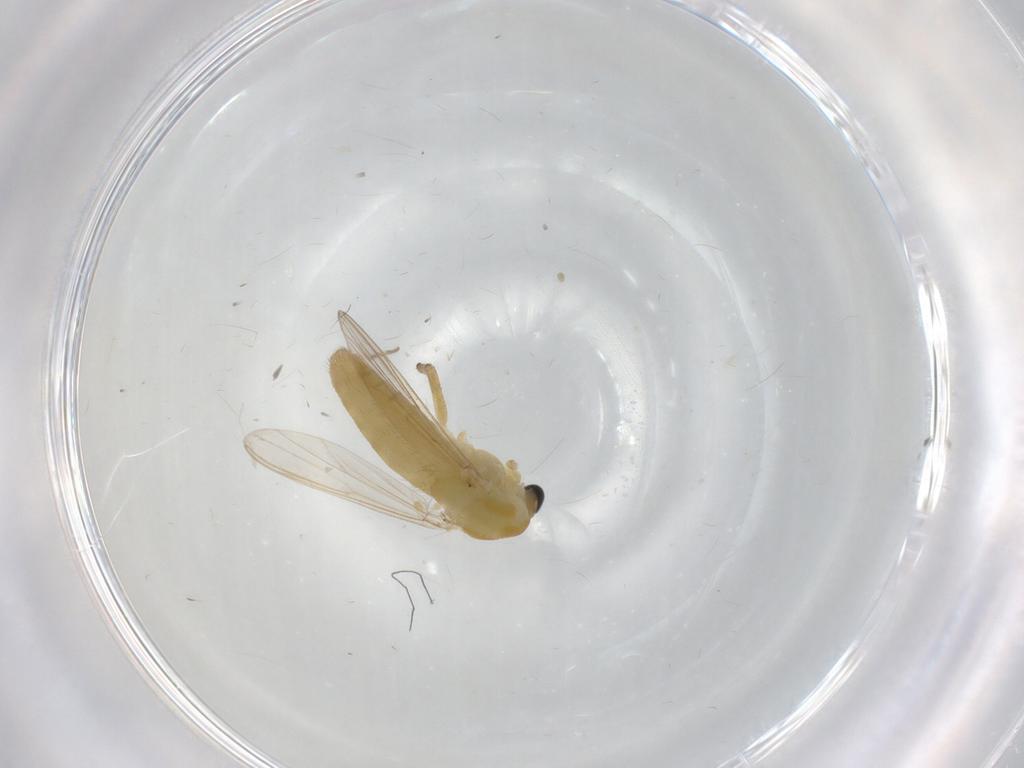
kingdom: Animalia
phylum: Arthropoda
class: Insecta
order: Diptera
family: Chironomidae
